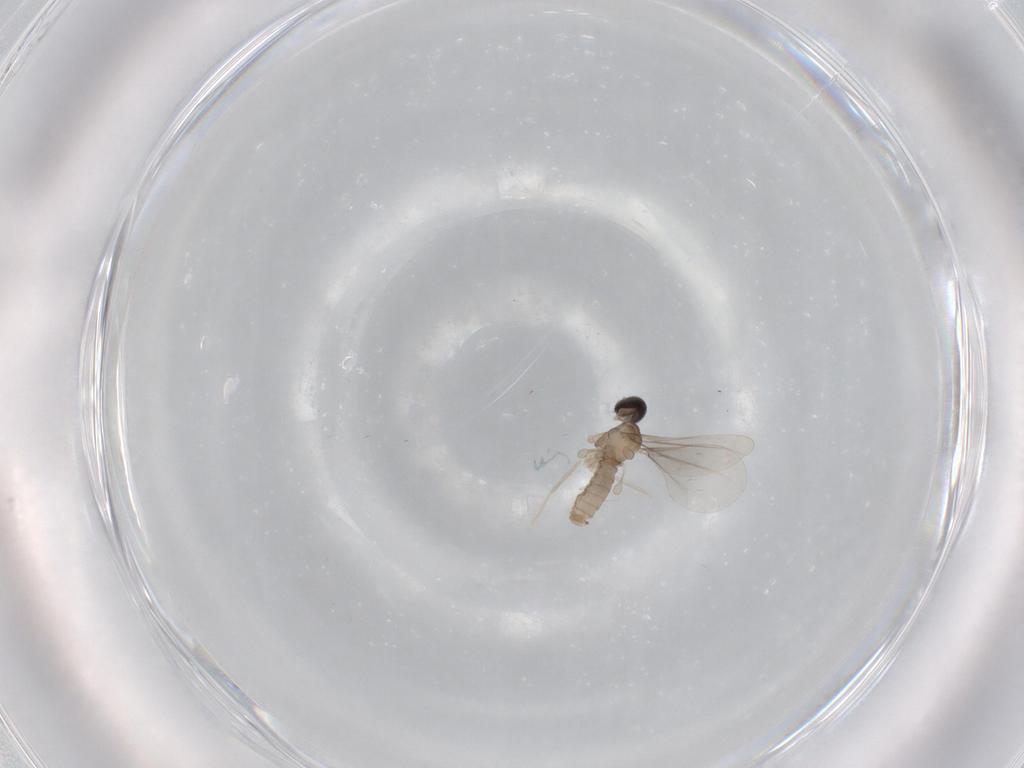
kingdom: Animalia
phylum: Arthropoda
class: Insecta
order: Diptera
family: Cecidomyiidae
